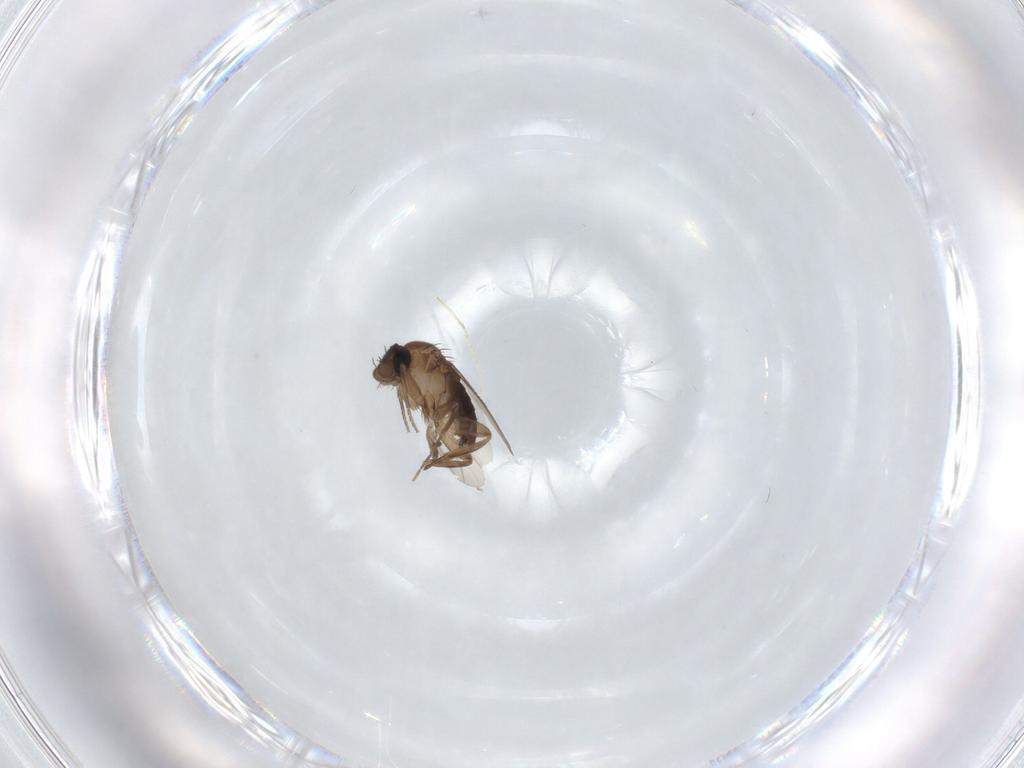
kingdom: Animalia
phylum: Arthropoda
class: Insecta
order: Diptera
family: Phoridae
